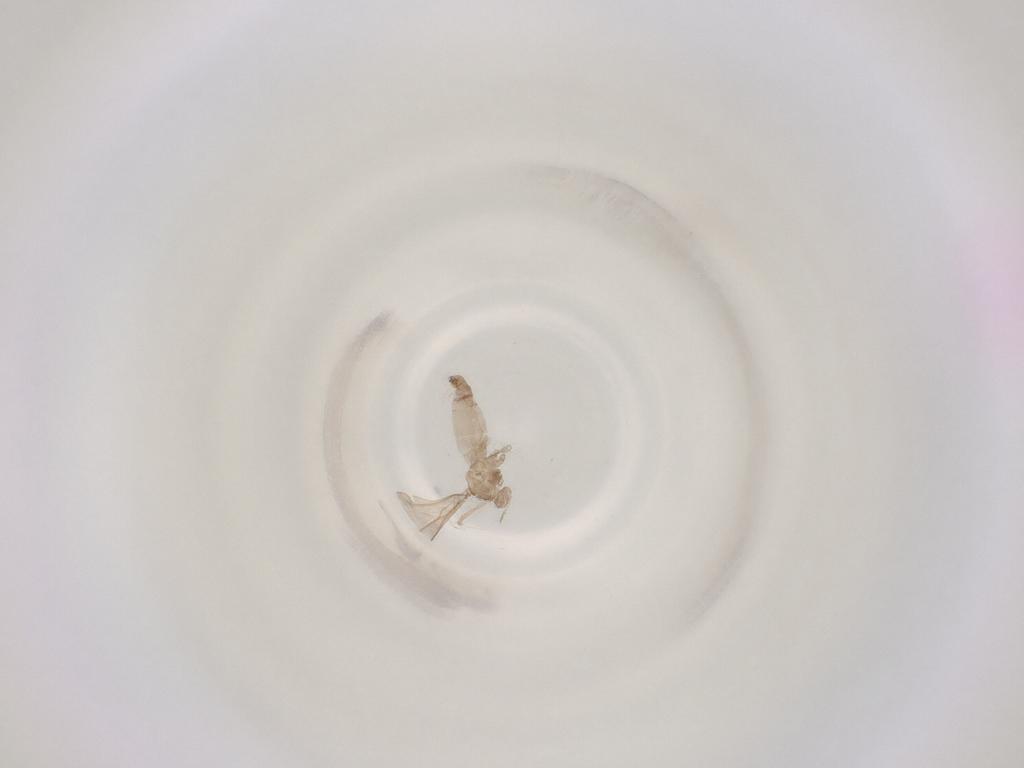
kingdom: Animalia
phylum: Arthropoda
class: Insecta
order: Diptera
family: Cecidomyiidae
